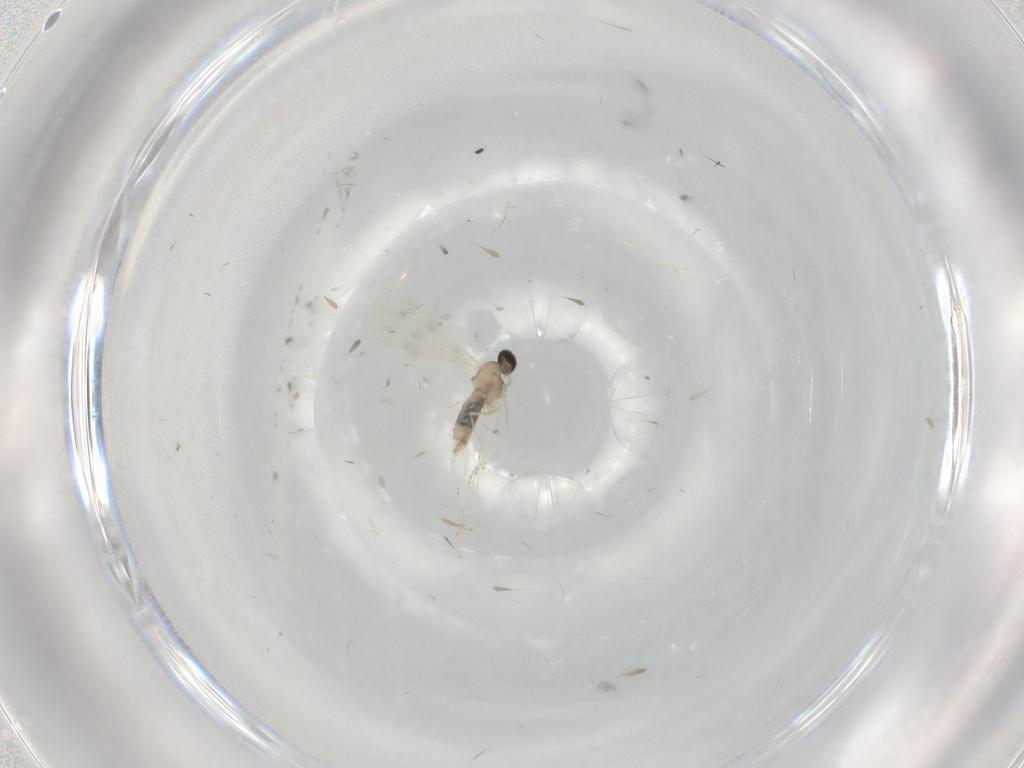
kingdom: Animalia
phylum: Arthropoda
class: Insecta
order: Diptera
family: Cecidomyiidae
